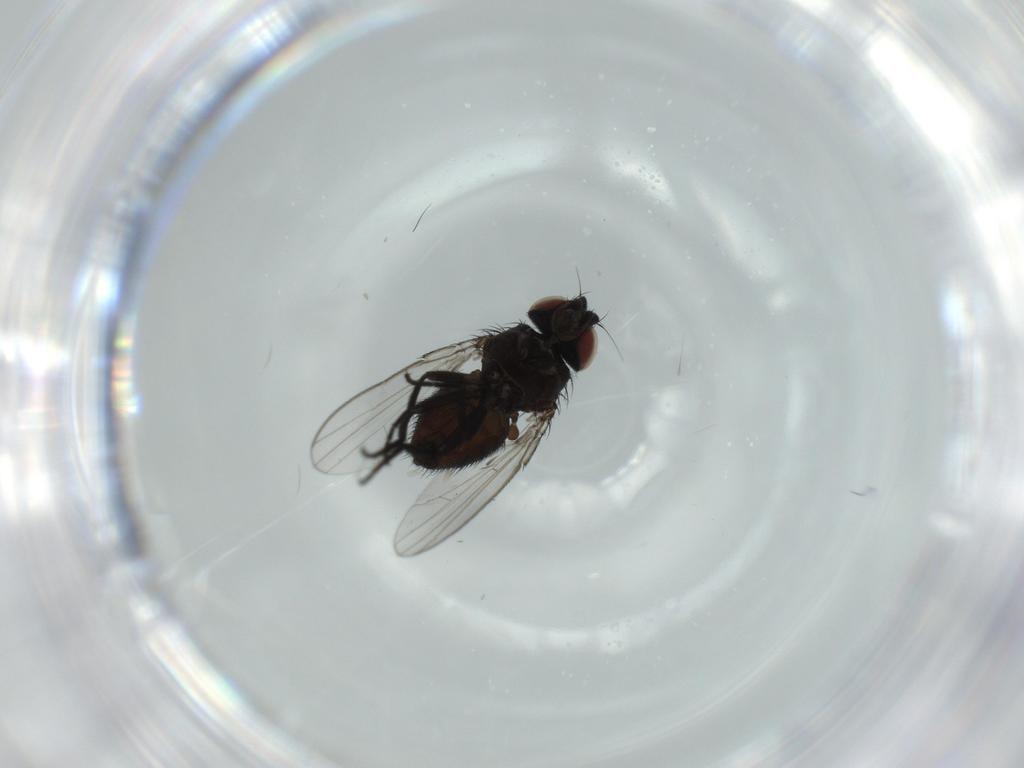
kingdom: Animalia
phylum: Arthropoda
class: Insecta
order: Diptera
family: Milichiidae
